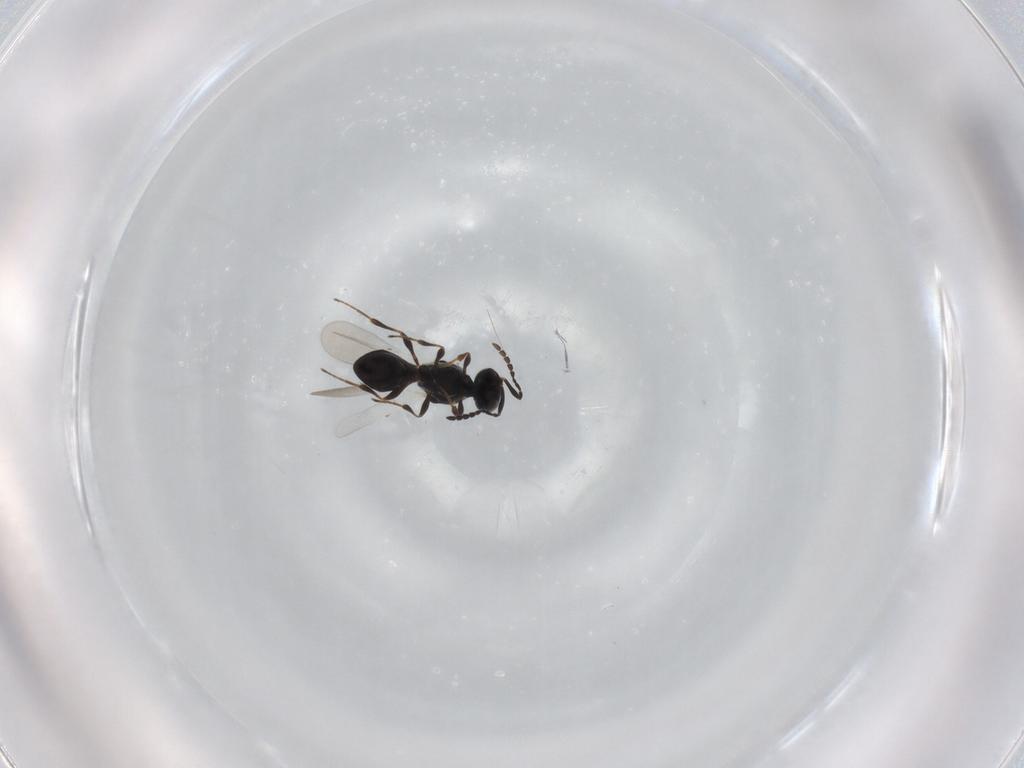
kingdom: Animalia
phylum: Arthropoda
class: Insecta
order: Hymenoptera
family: Platygastridae
